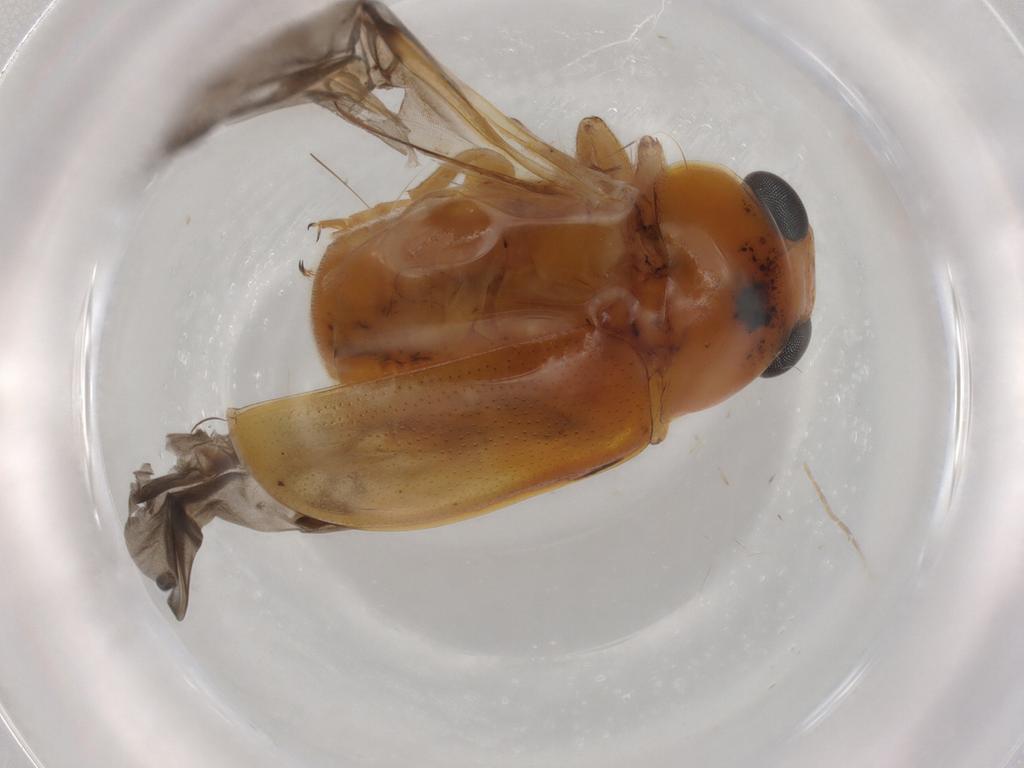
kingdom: Animalia
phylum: Arthropoda
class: Insecta
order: Coleoptera
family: Chrysomelidae
